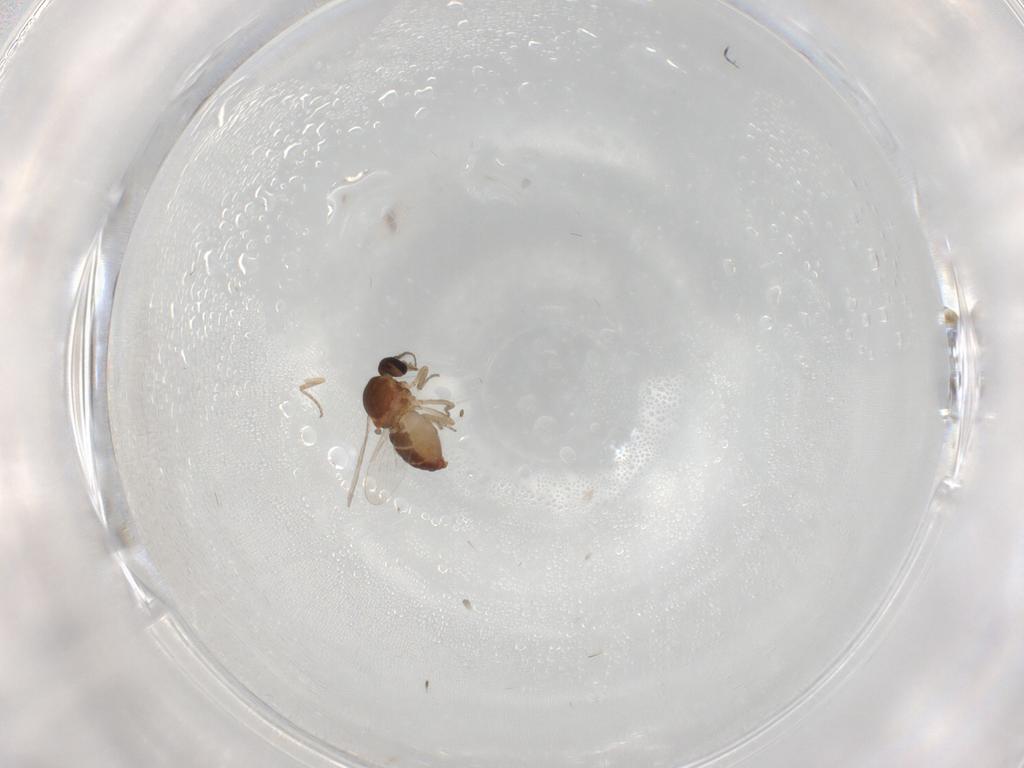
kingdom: Animalia
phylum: Arthropoda
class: Insecta
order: Diptera
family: Ceratopogonidae
